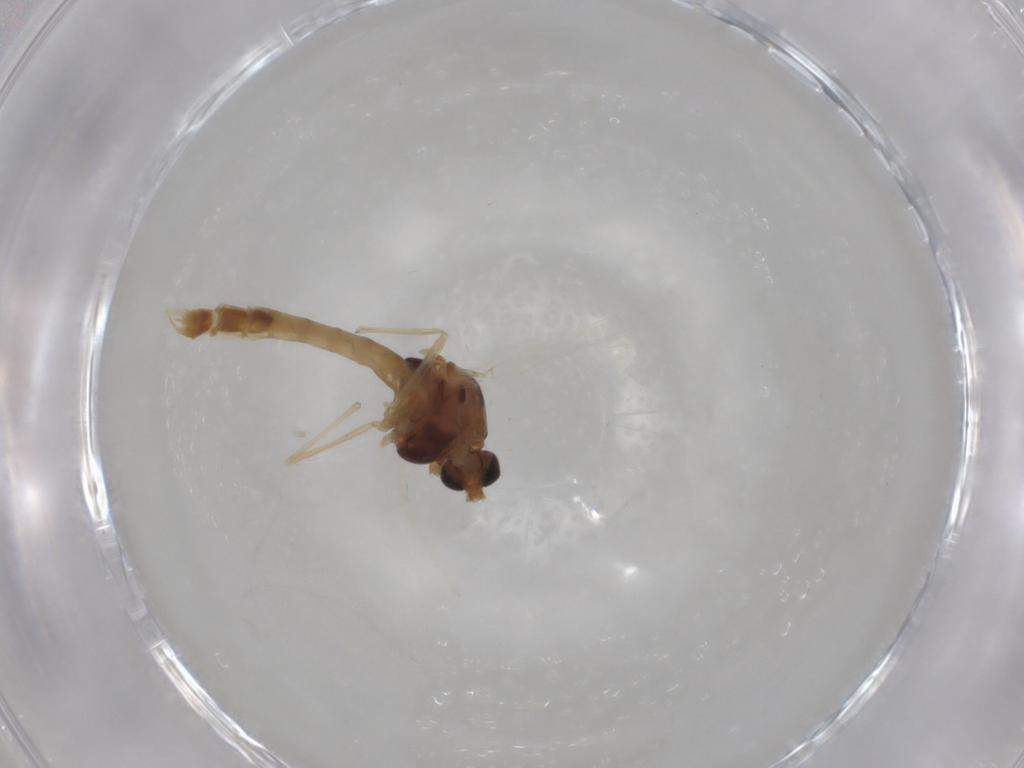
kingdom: Animalia
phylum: Arthropoda
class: Insecta
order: Diptera
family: Chironomidae
